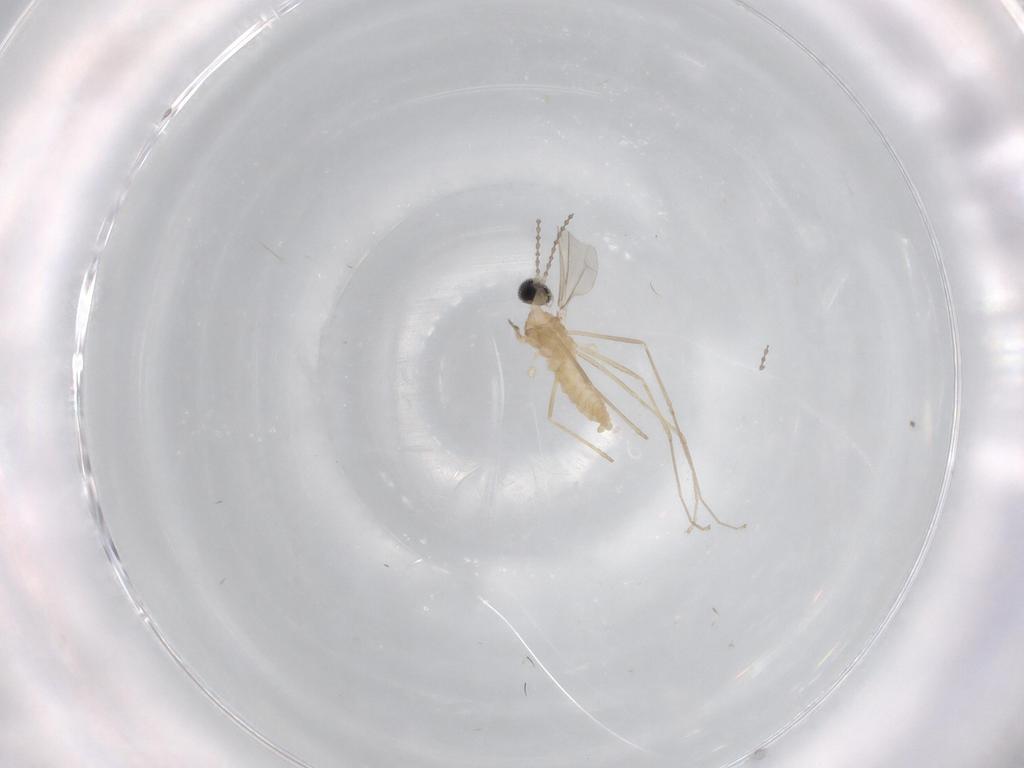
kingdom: Animalia
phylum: Arthropoda
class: Insecta
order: Diptera
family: Cecidomyiidae
